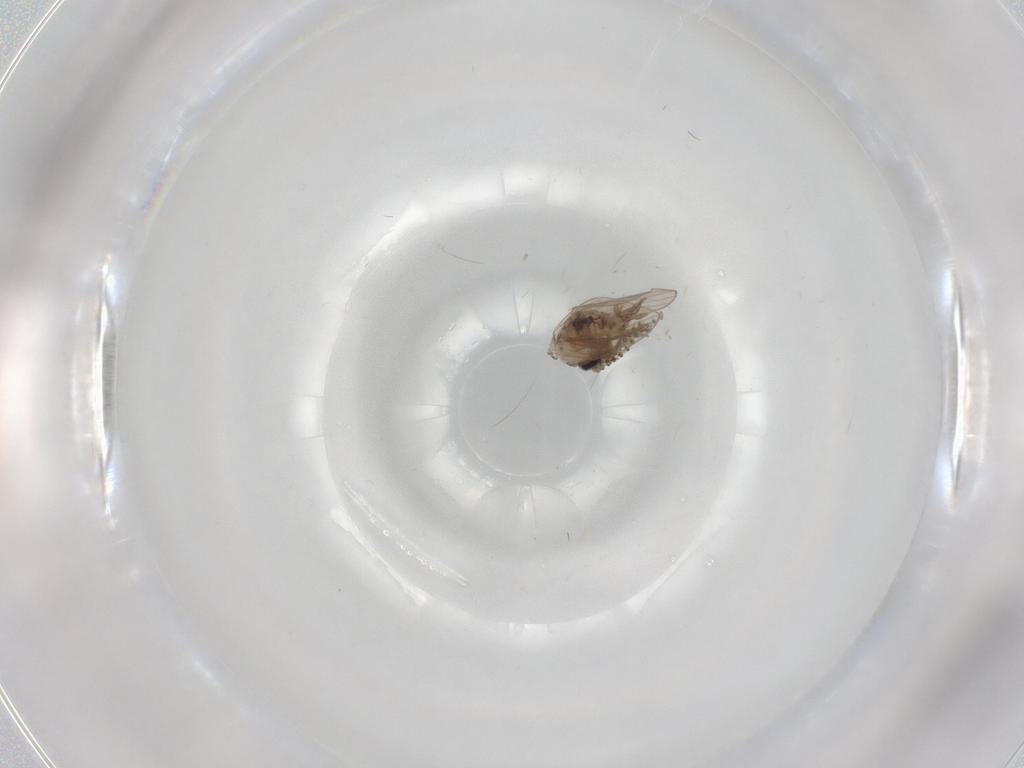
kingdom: Animalia
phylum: Arthropoda
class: Insecta
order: Diptera
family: Psychodidae
